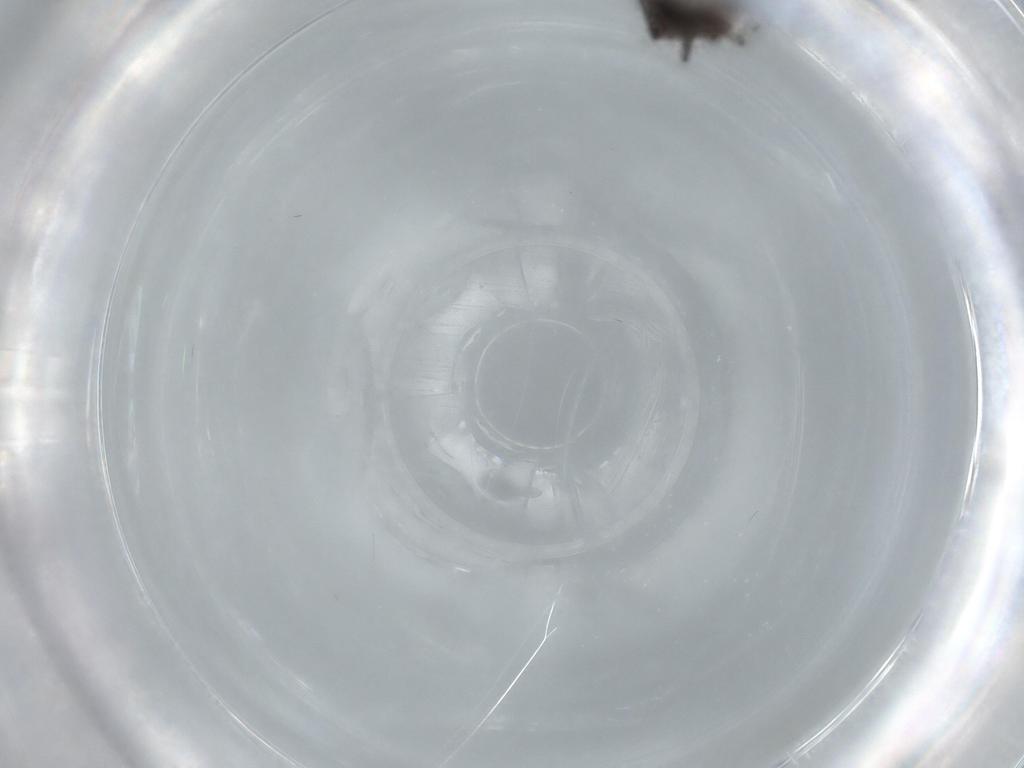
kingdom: Animalia
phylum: Arthropoda
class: Insecta
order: Psocodea
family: Lepidopsocidae
